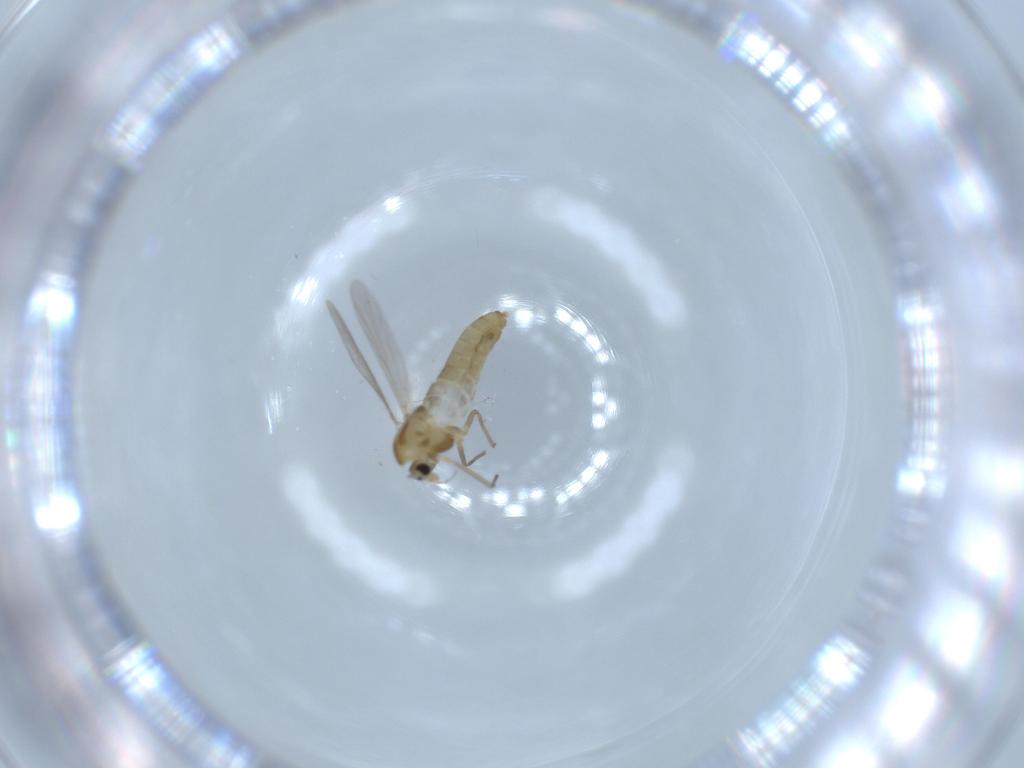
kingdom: Animalia
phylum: Arthropoda
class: Insecta
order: Diptera
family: Chironomidae
